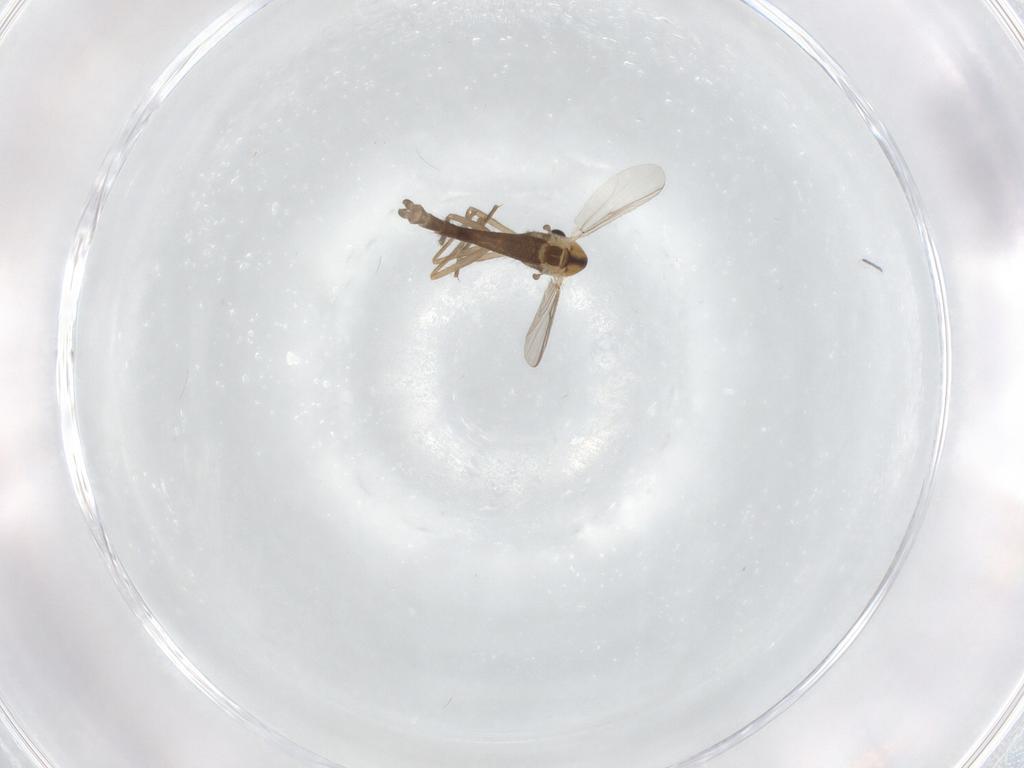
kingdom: Animalia
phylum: Arthropoda
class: Insecta
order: Diptera
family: Chironomidae
